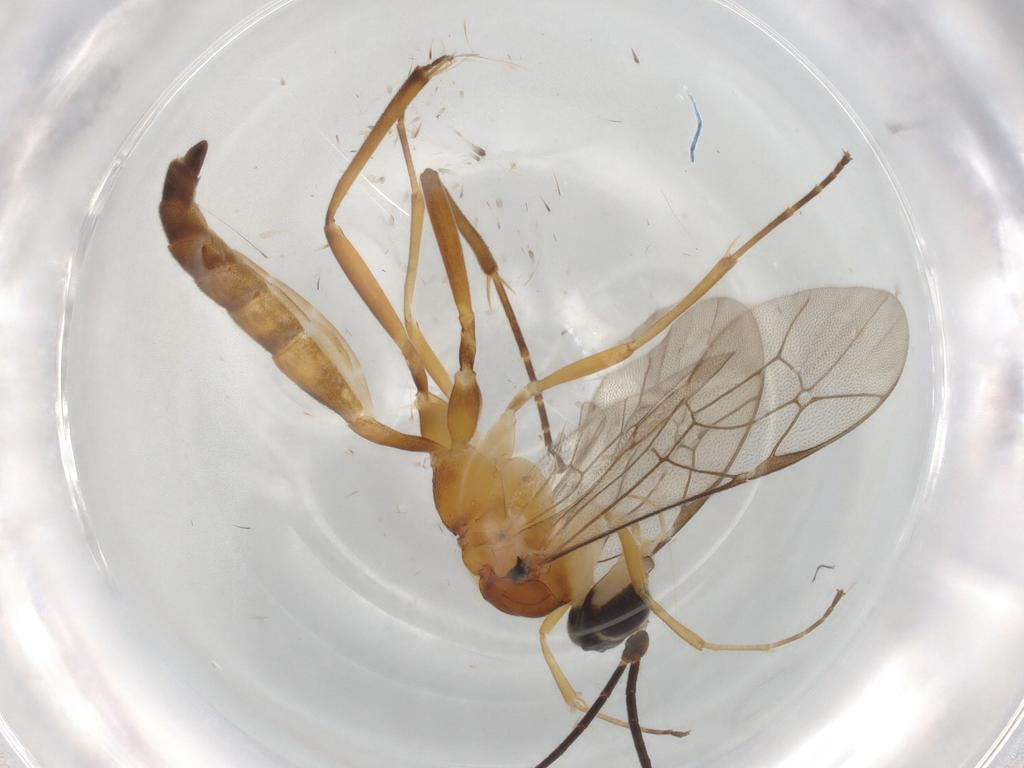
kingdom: Animalia
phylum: Arthropoda
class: Insecta
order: Hymenoptera
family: Ichneumonidae
